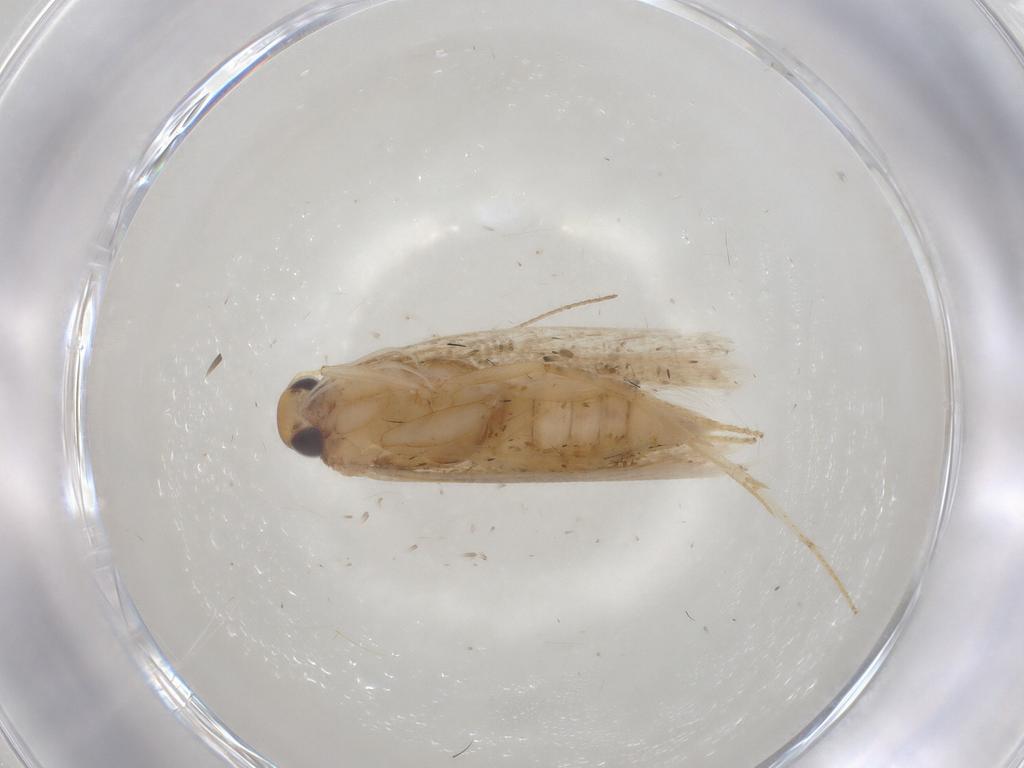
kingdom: Animalia
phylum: Arthropoda
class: Insecta
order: Lepidoptera
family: Gelechiidae
